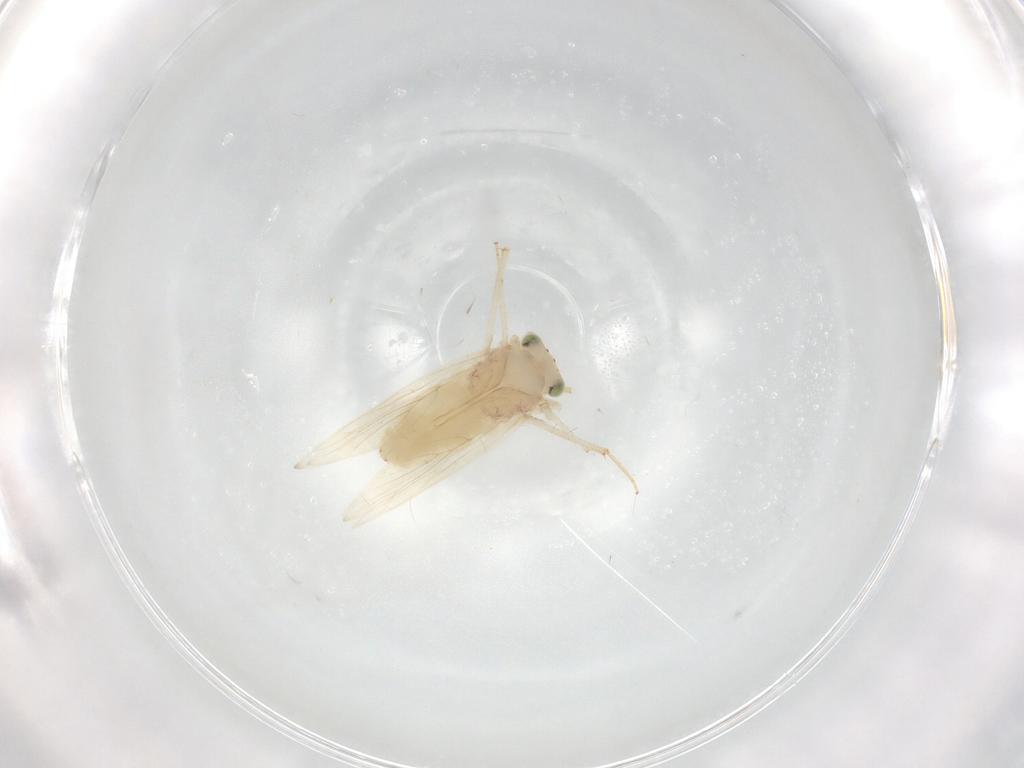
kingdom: Animalia
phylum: Arthropoda
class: Insecta
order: Psocodea
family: Lepidopsocidae
